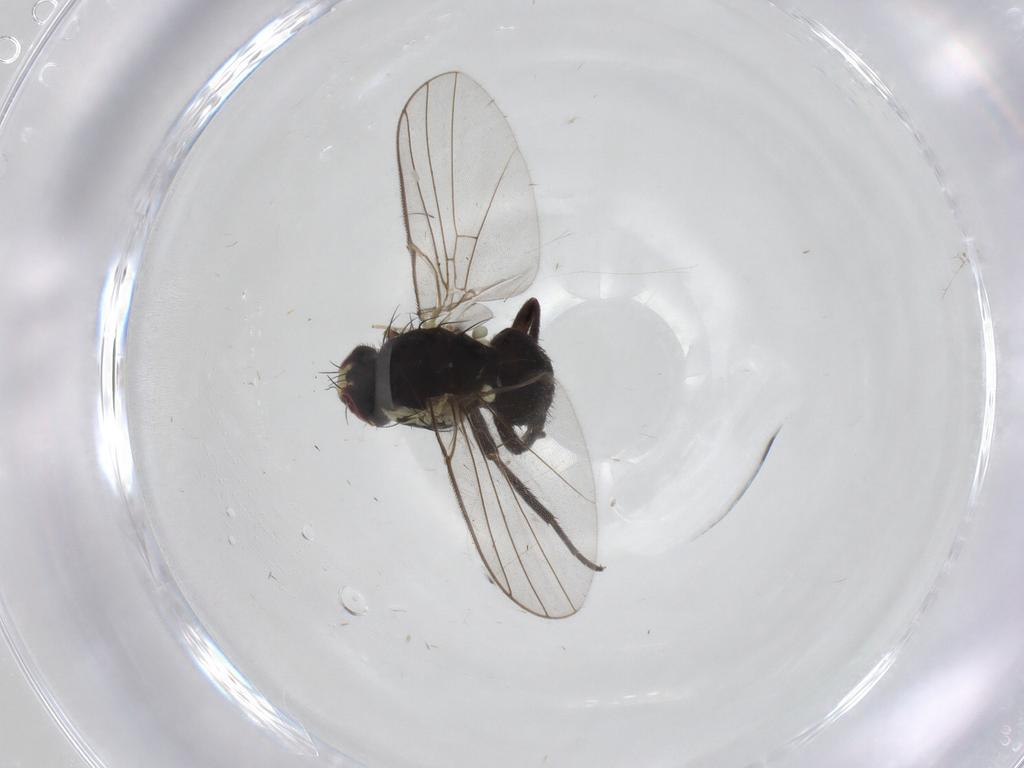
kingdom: Animalia
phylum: Arthropoda
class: Insecta
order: Diptera
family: Agromyzidae
